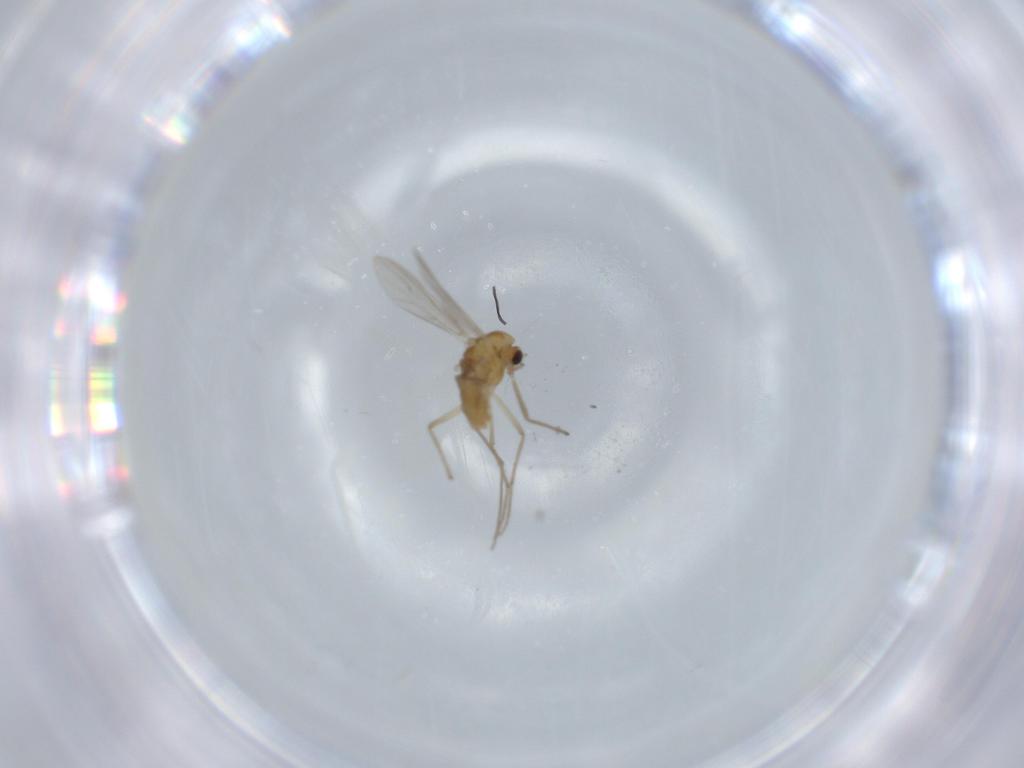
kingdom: Animalia
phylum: Arthropoda
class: Insecta
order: Diptera
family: Chironomidae
